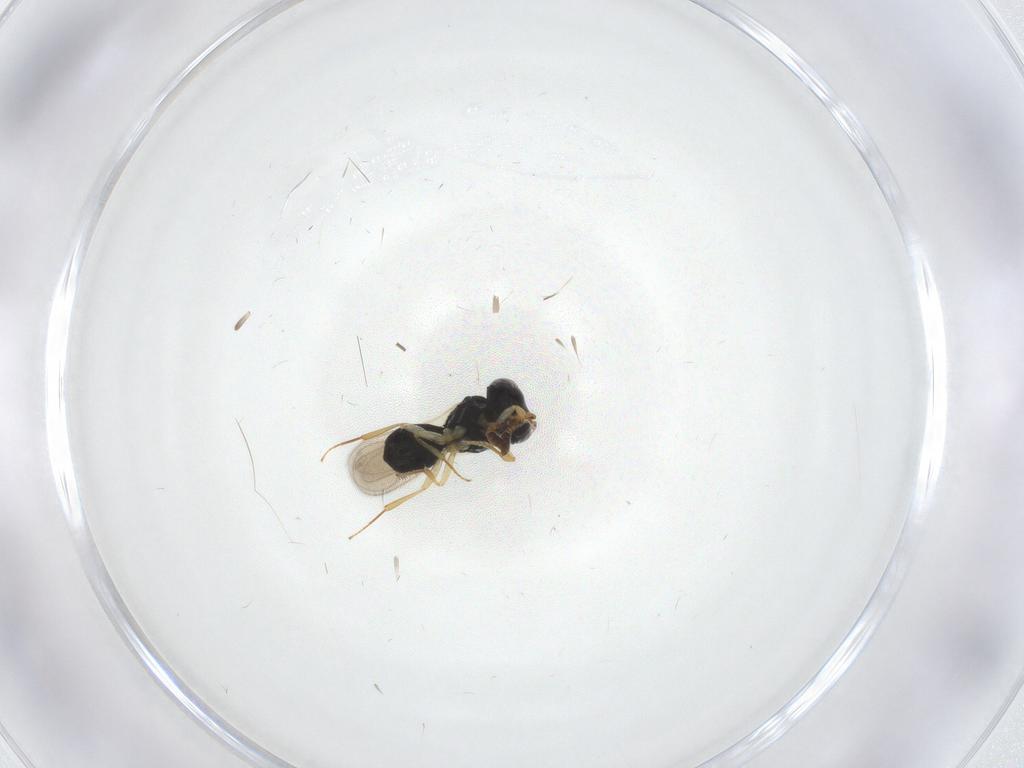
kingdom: Animalia
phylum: Arthropoda
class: Insecta
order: Hymenoptera
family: Scelionidae
